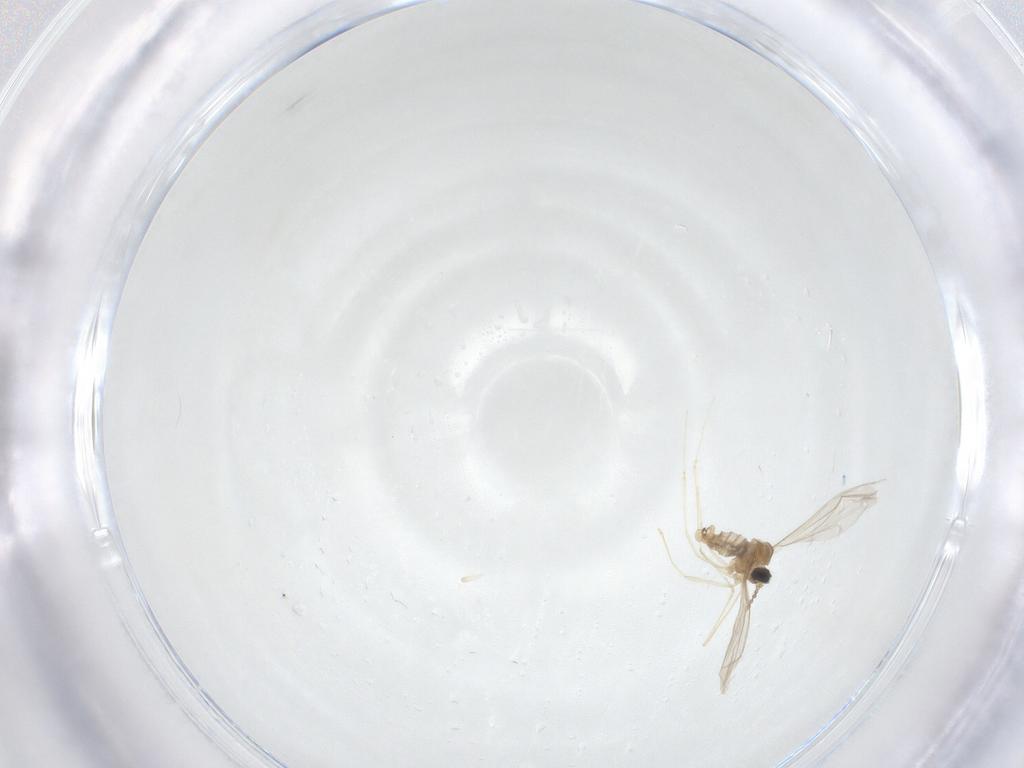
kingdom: Animalia
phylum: Arthropoda
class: Insecta
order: Diptera
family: Cecidomyiidae
